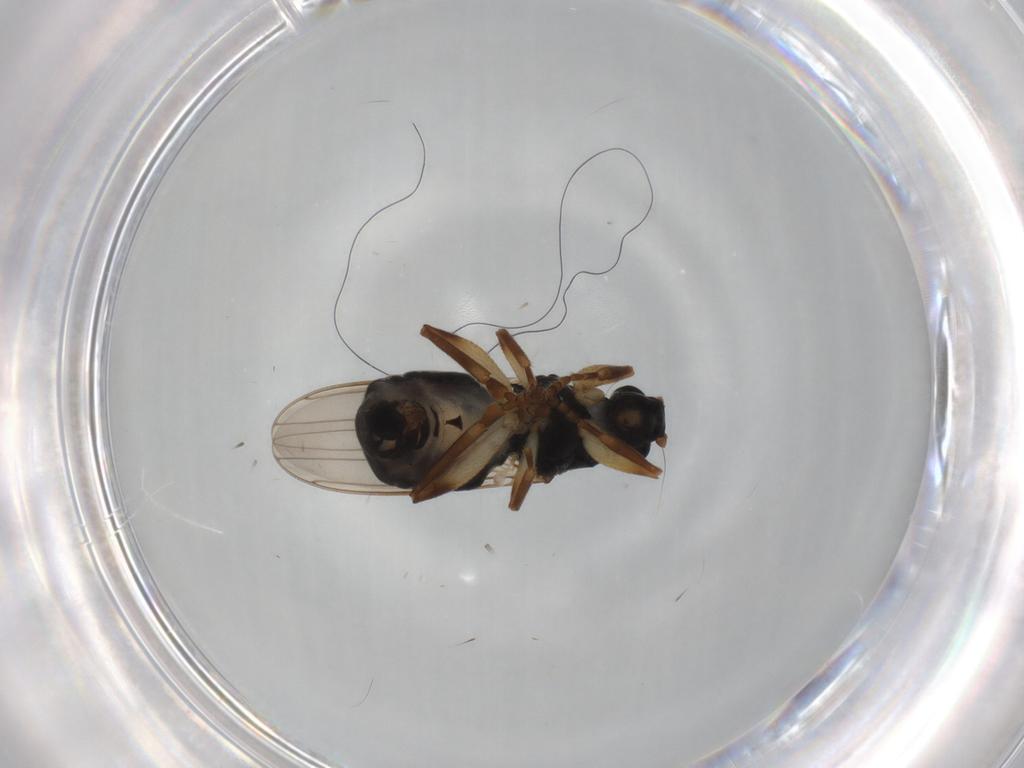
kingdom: Animalia
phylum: Arthropoda
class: Insecta
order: Diptera
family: Sphaeroceridae
